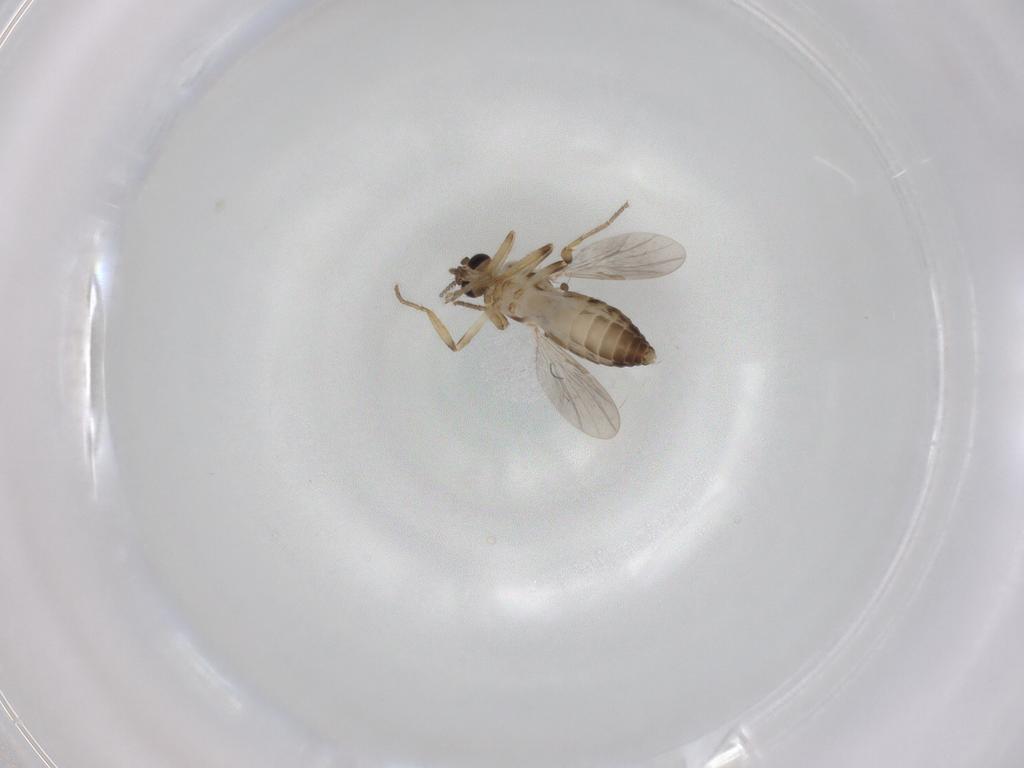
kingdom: Animalia
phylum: Arthropoda
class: Insecta
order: Diptera
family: Ceratopogonidae
